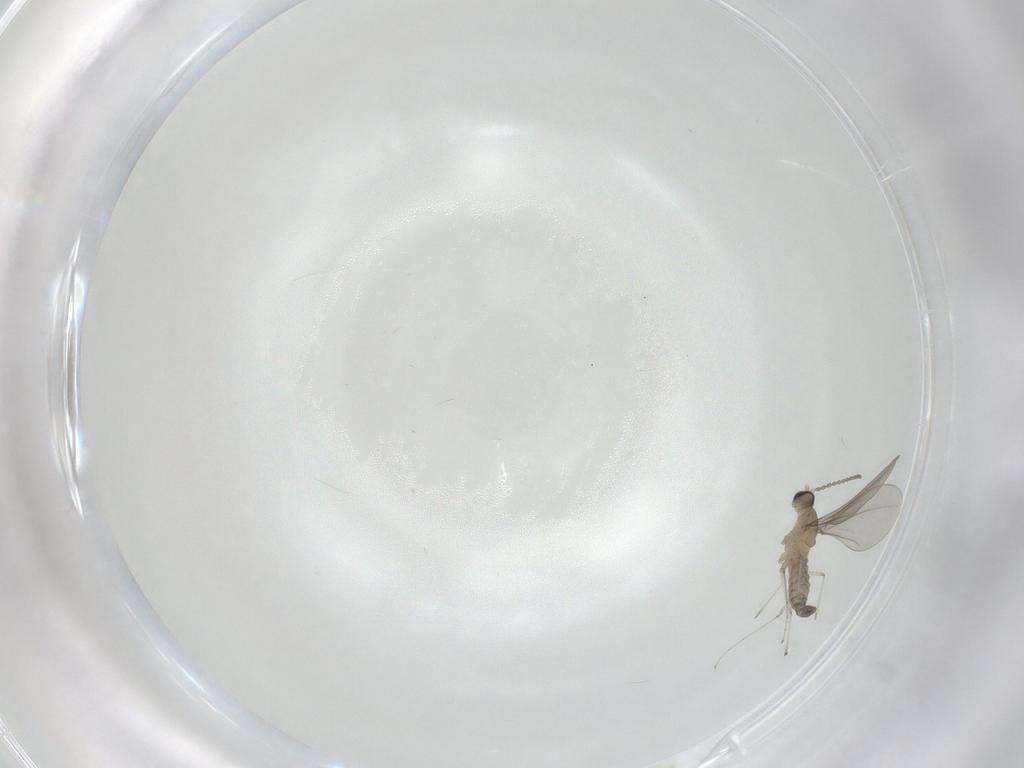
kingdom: Animalia
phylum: Arthropoda
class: Insecta
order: Diptera
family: Cecidomyiidae
